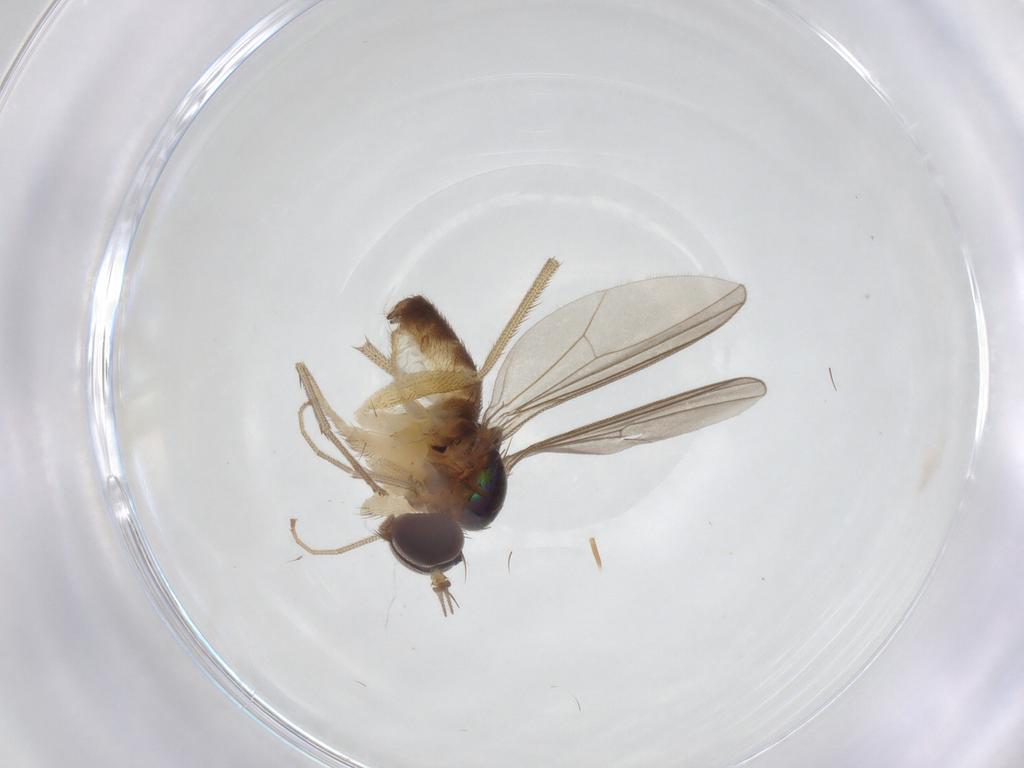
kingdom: Animalia
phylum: Arthropoda
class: Insecta
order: Diptera
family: Dolichopodidae
